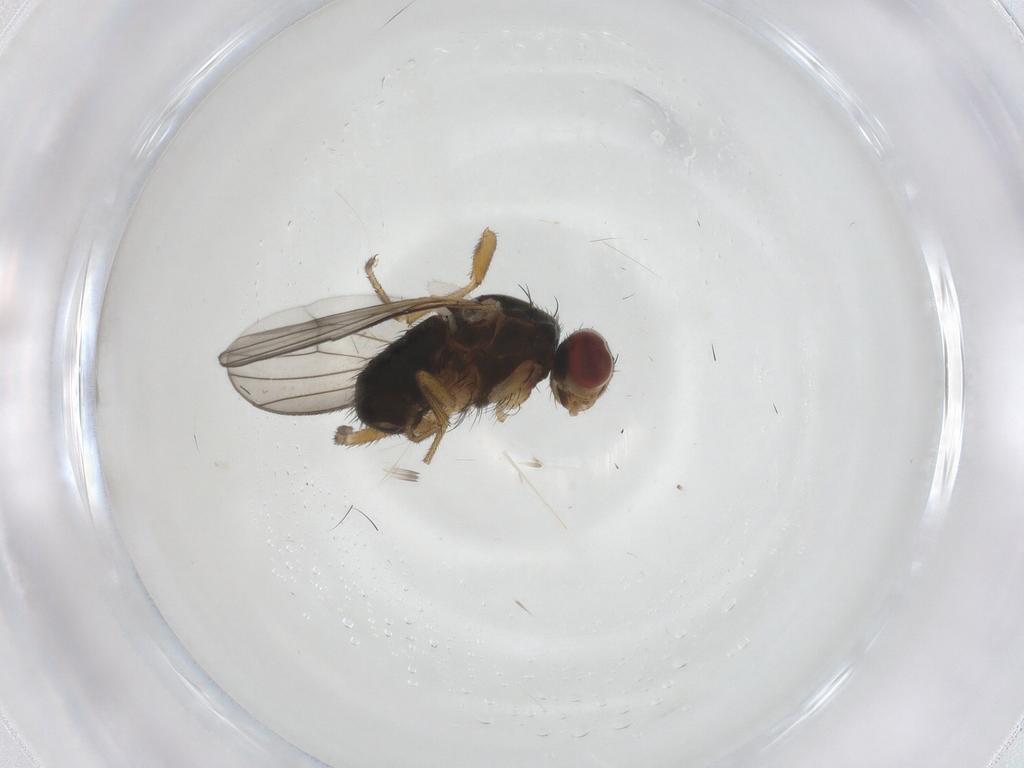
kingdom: Animalia
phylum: Arthropoda
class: Insecta
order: Diptera
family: Heleomyzidae
